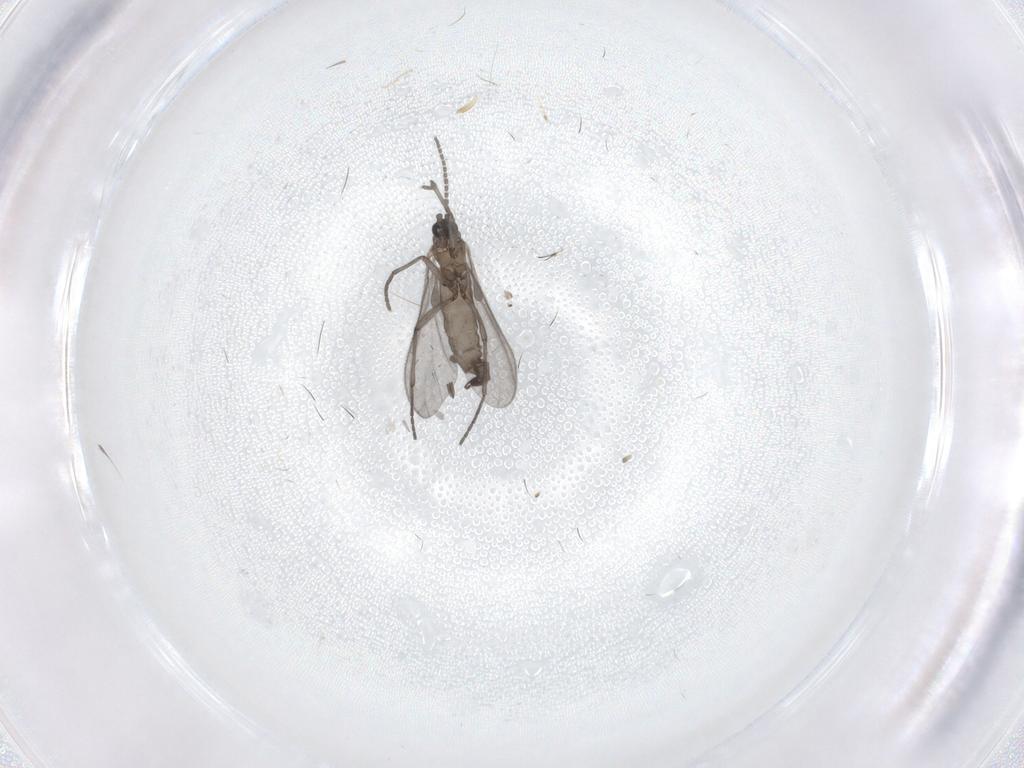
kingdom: Animalia
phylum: Arthropoda
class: Insecta
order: Diptera
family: Sciaridae
